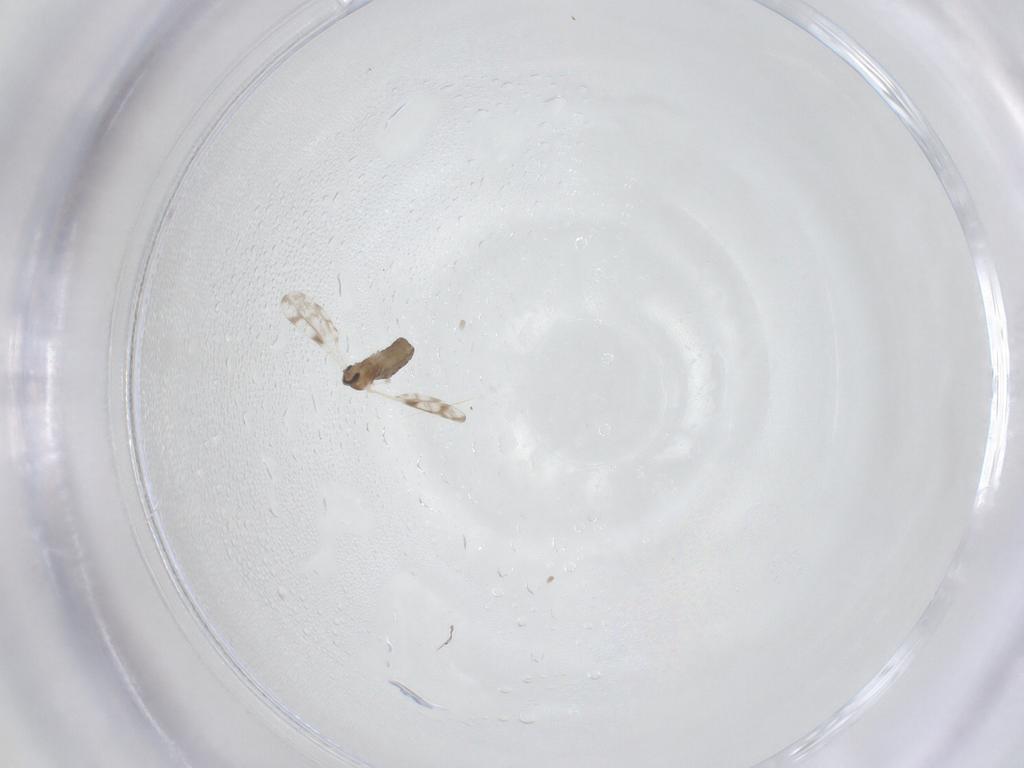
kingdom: Animalia
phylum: Arthropoda
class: Insecta
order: Diptera
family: Cecidomyiidae
